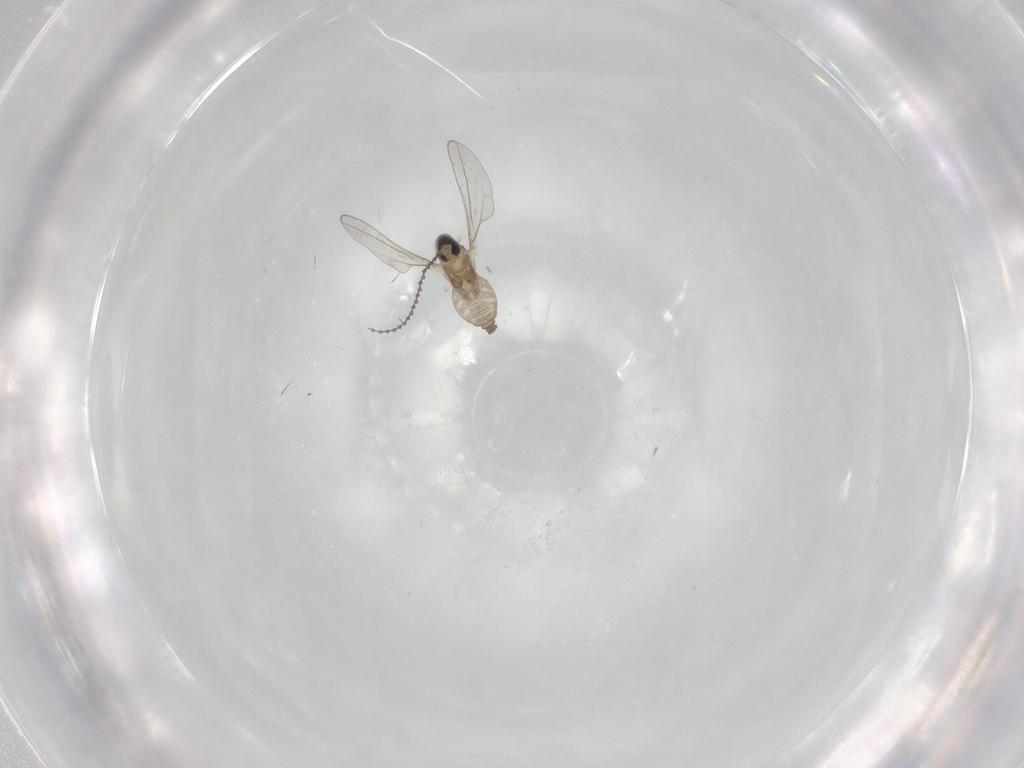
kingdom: Animalia
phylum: Arthropoda
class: Insecta
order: Diptera
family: Cecidomyiidae
